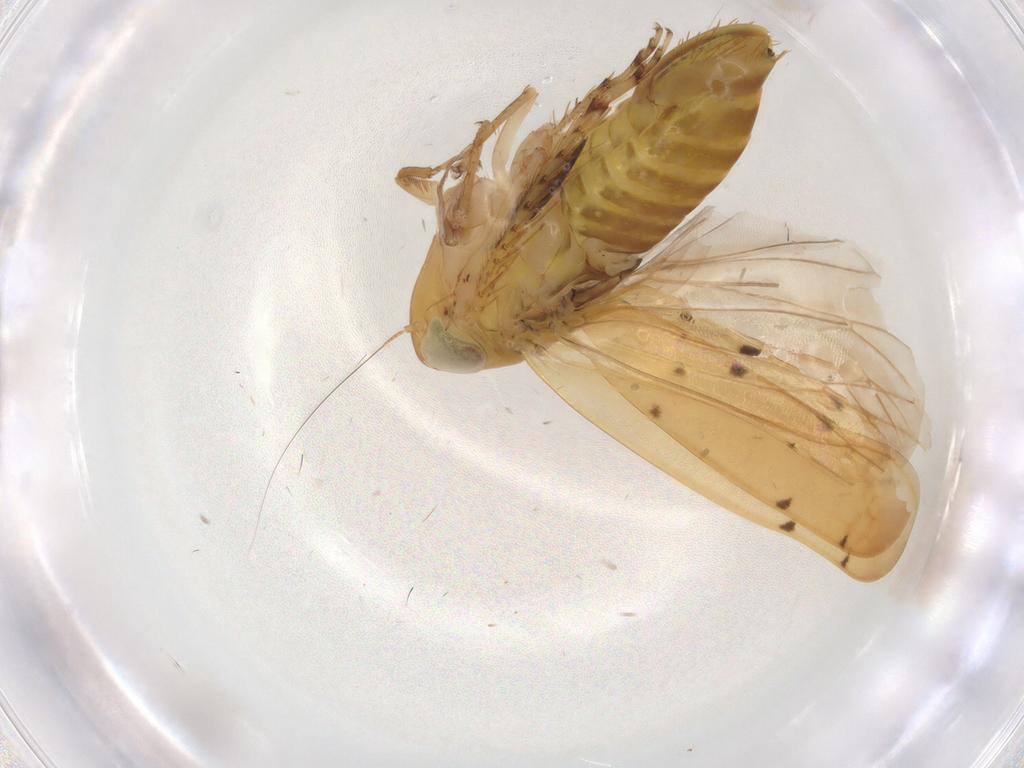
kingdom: Animalia
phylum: Arthropoda
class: Insecta
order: Hemiptera
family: Cicadellidae
